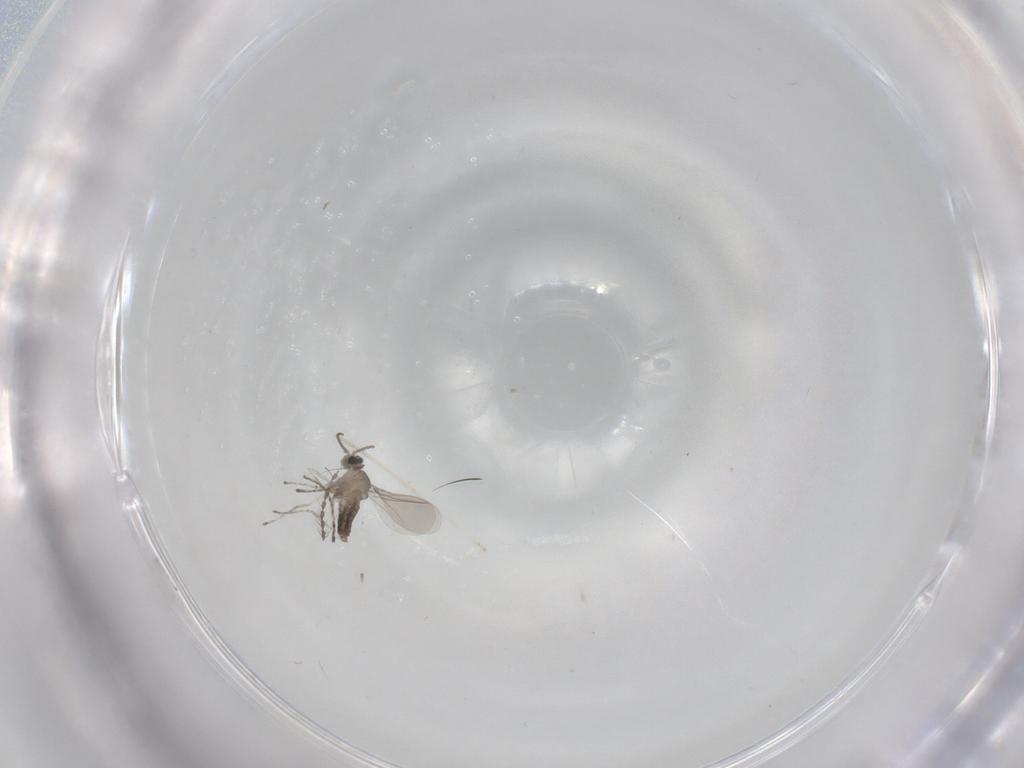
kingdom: Animalia
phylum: Arthropoda
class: Insecta
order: Diptera
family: Cecidomyiidae
